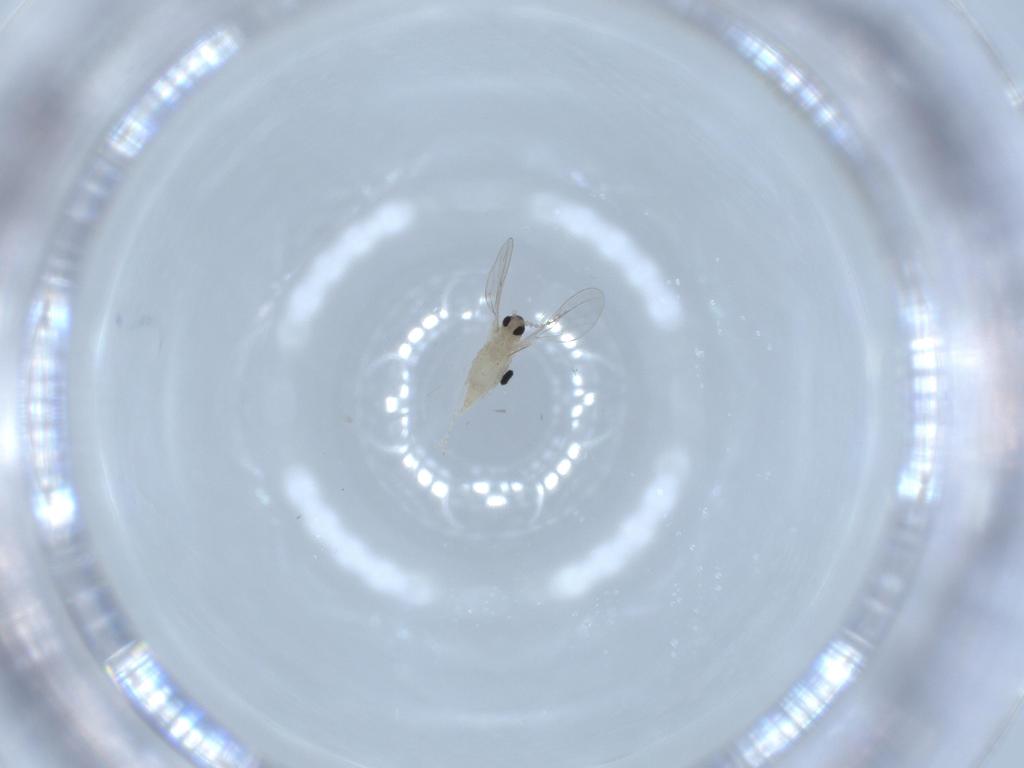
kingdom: Animalia
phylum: Arthropoda
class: Insecta
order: Diptera
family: Cecidomyiidae
